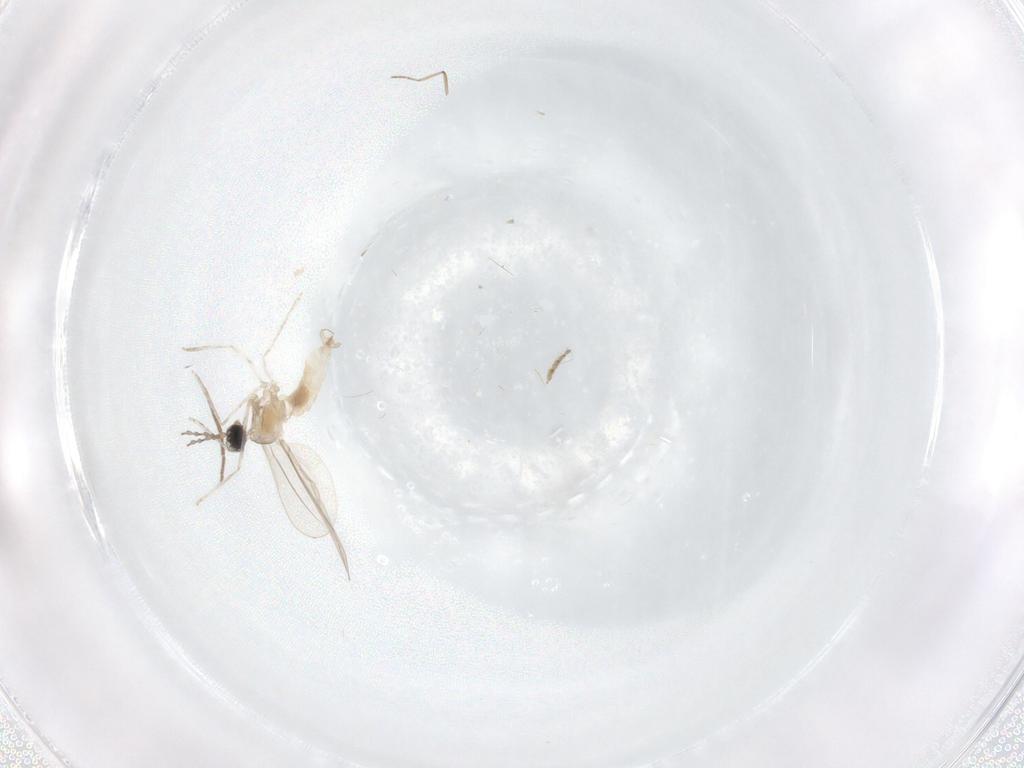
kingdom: Animalia
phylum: Arthropoda
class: Insecta
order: Diptera
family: Cecidomyiidae
